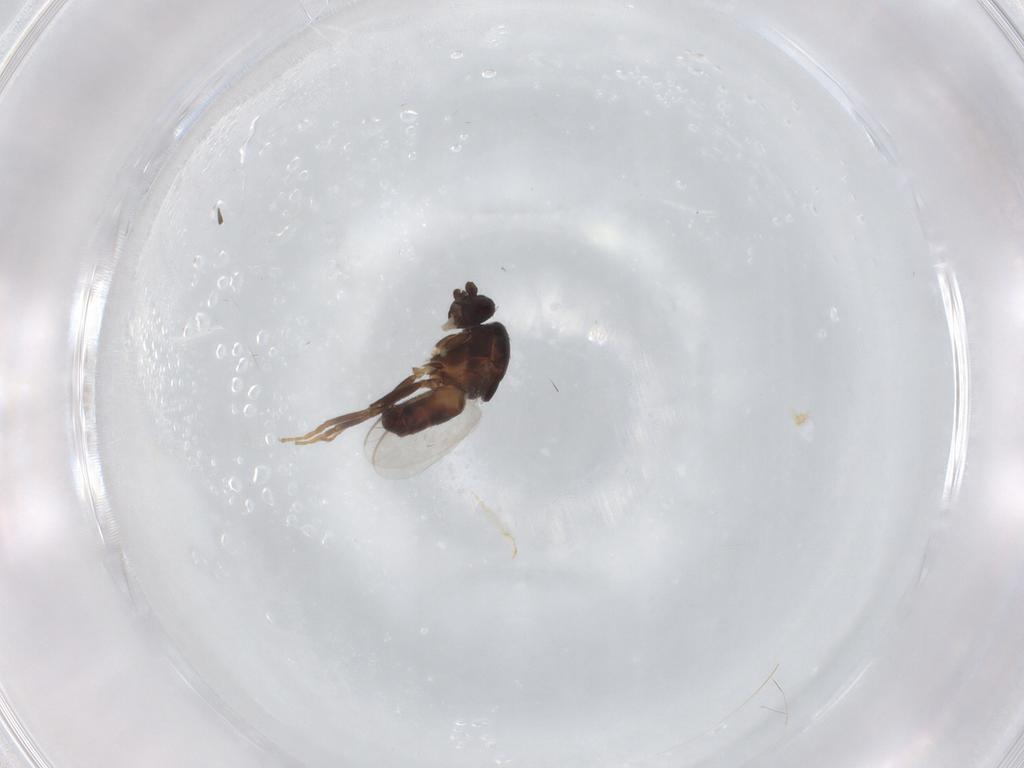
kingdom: Animalia
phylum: Arthropoda
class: Insecta
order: Diptera
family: Sphaeroceridae
